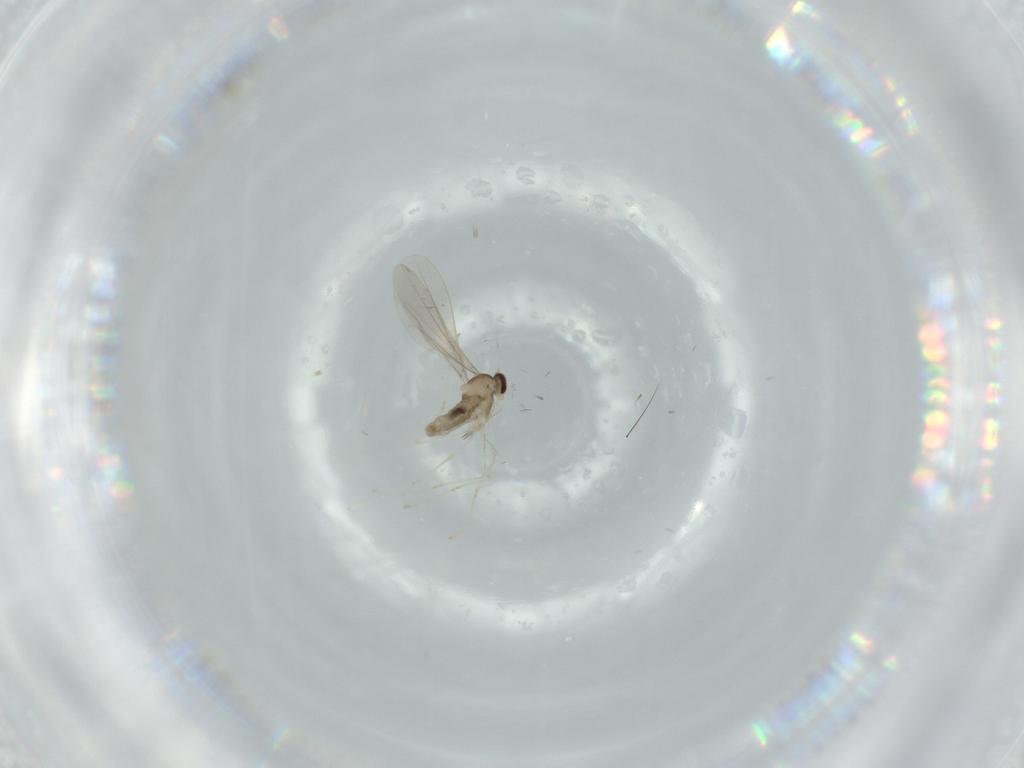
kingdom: Animalia
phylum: Arthropoda
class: Insecta
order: Diptera
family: Cecidomyiidae
